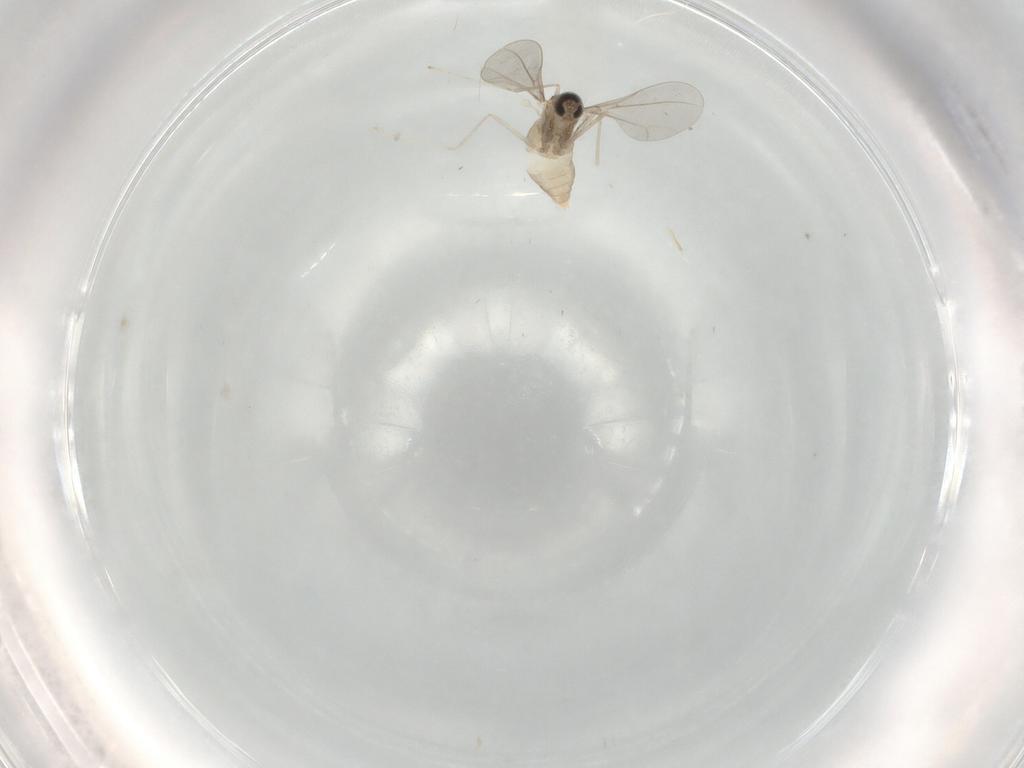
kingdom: Animalia
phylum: Arthropoda
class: Insecta
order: Diptera
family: Cecidomyiidae
